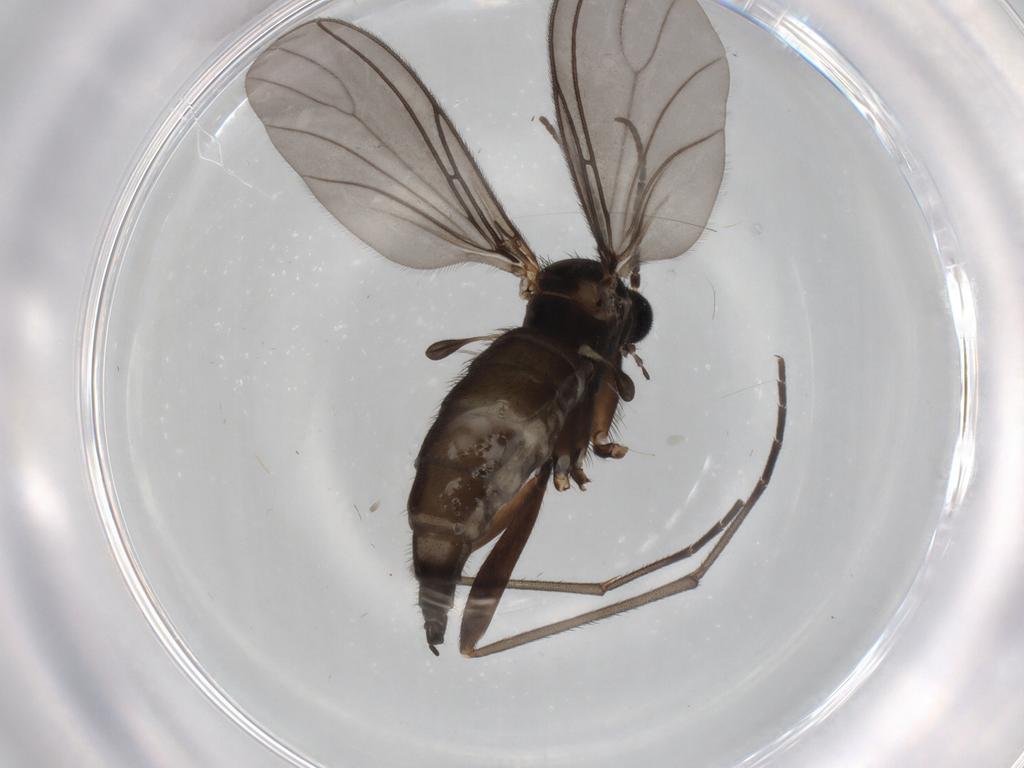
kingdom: Animalia
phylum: Arthropoda
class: Insecta
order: Diptera
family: Sciaridae
